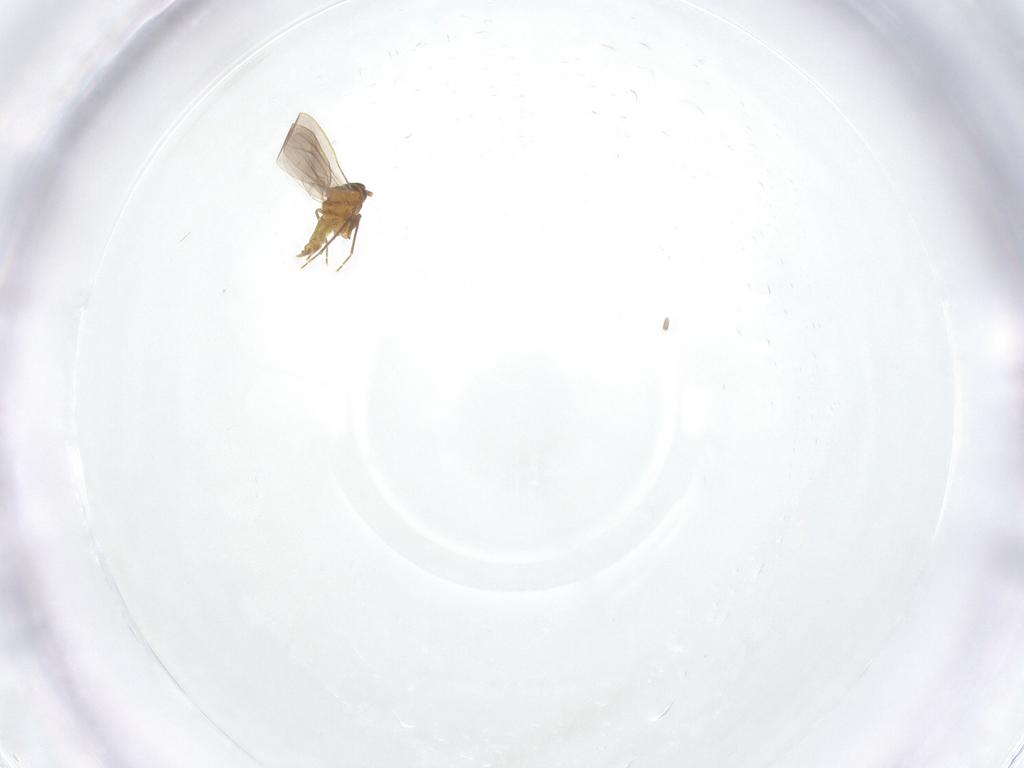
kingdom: Animalia
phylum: Arthropoda
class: Insecta
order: Hemiptera
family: Aleyrodidae
